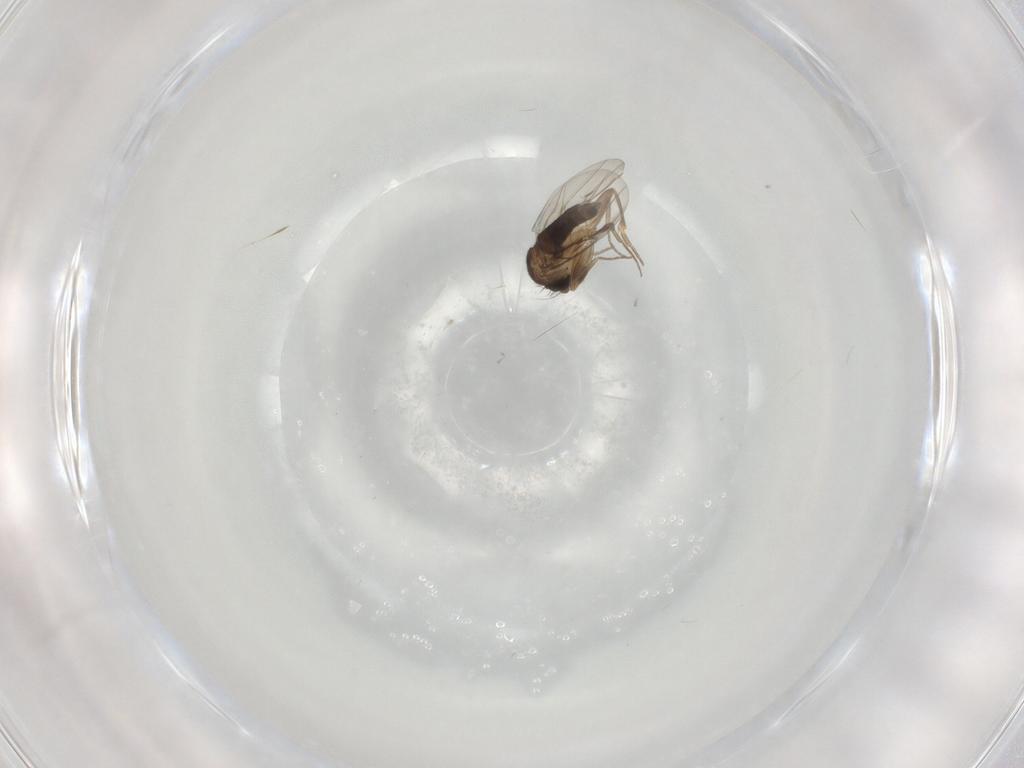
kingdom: Animalia
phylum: Arthropoda
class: Insecta
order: Diptera
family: Phoridae
